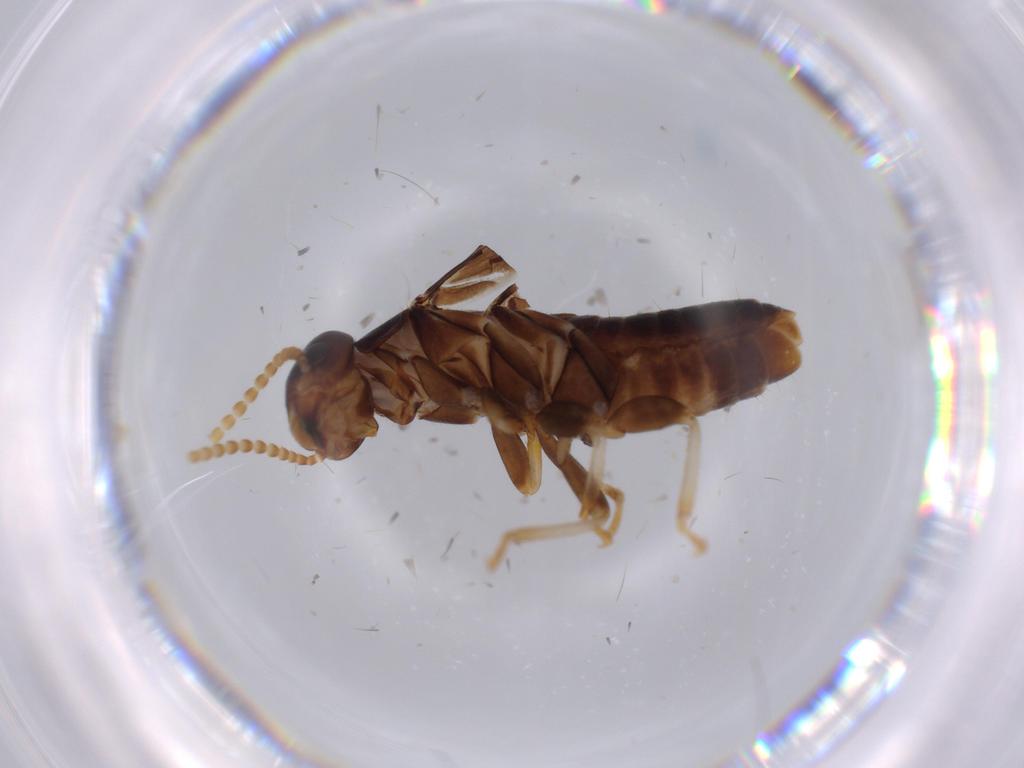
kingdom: Animalia
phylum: Arthropoda
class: Insecta
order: Blattodea
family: Kalotermitidae
